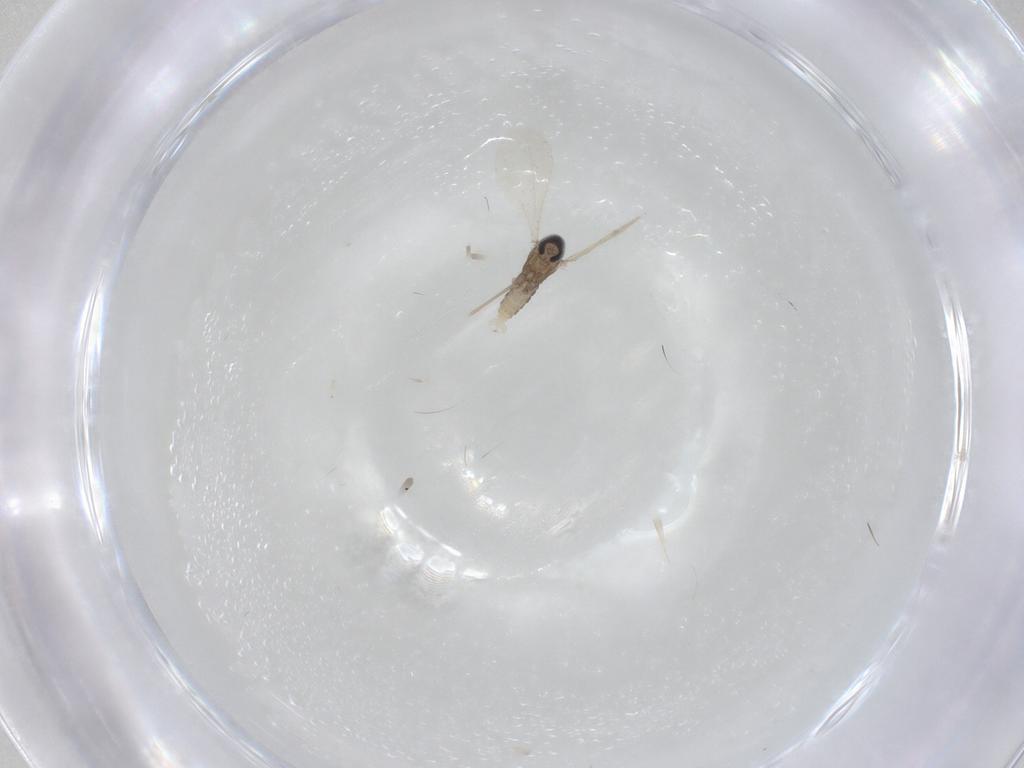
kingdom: Animalia
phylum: Arthropoda
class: Insecta
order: Diptera
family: Cecidomyiidae
